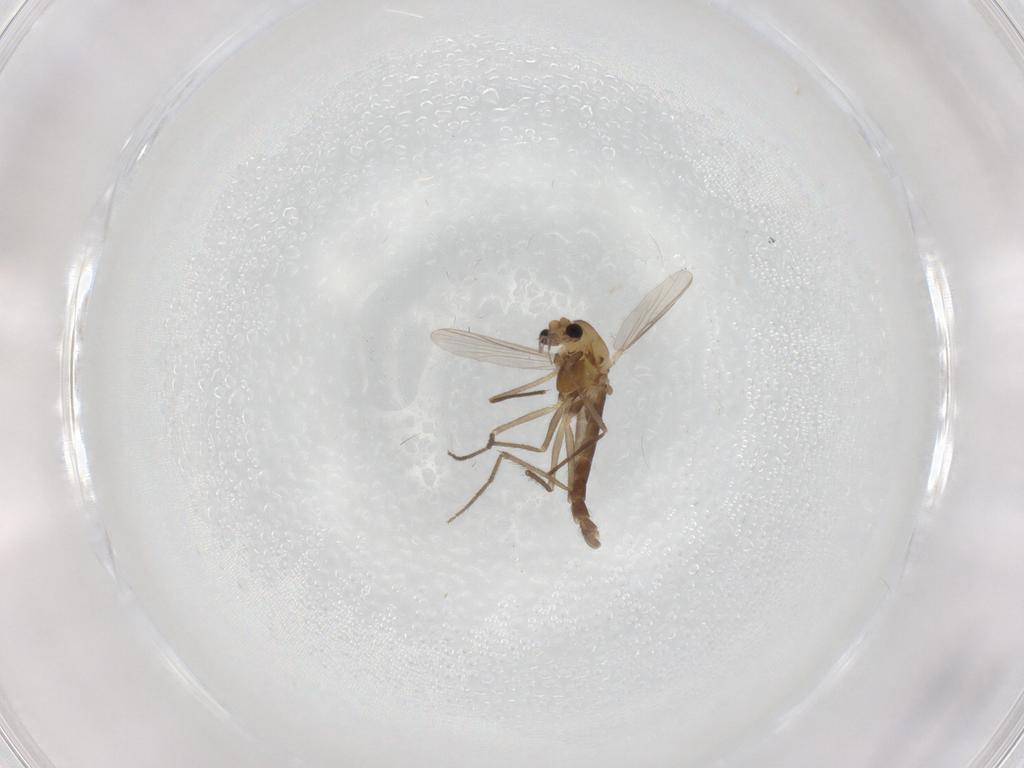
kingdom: Animalia
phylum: Arthropoda
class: Insecta
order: Diptera
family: Chironomidae
